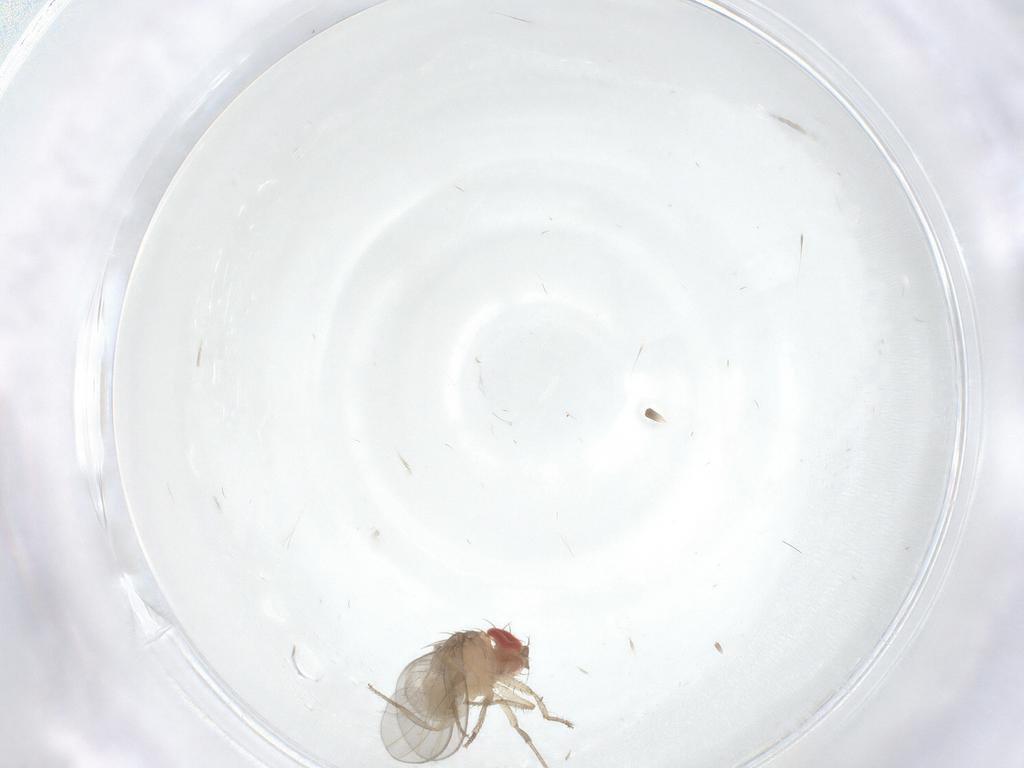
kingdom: Animalia
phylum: Arthropoda
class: Insecta
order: Diptera
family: Drosophilidae
